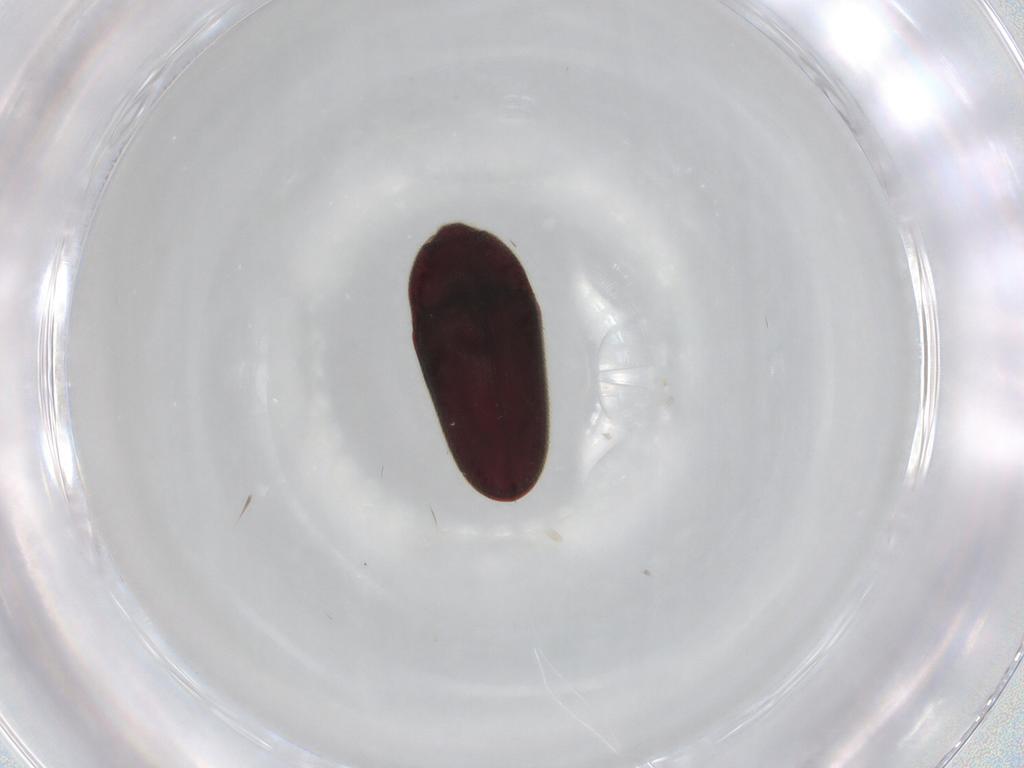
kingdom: Animalia
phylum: Arthropoda
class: Insecta
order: Coleoptera
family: Throscidae
